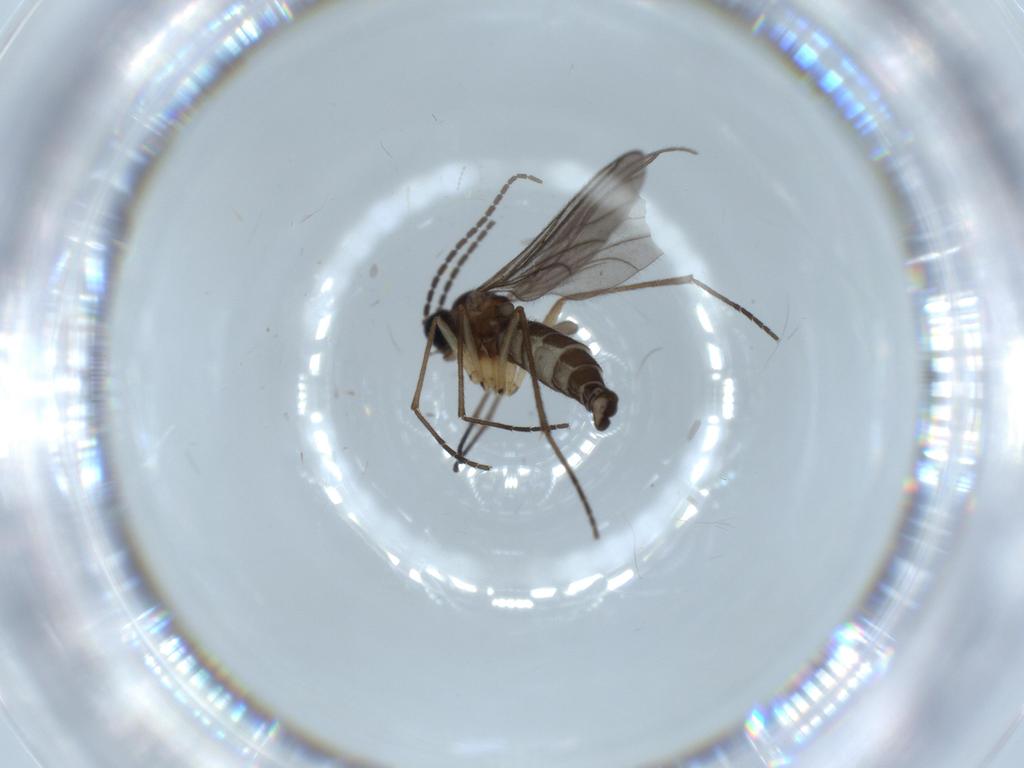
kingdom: Animalia
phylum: Arthropoda
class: Insecta
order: Diptera
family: Cecidomyiidae
